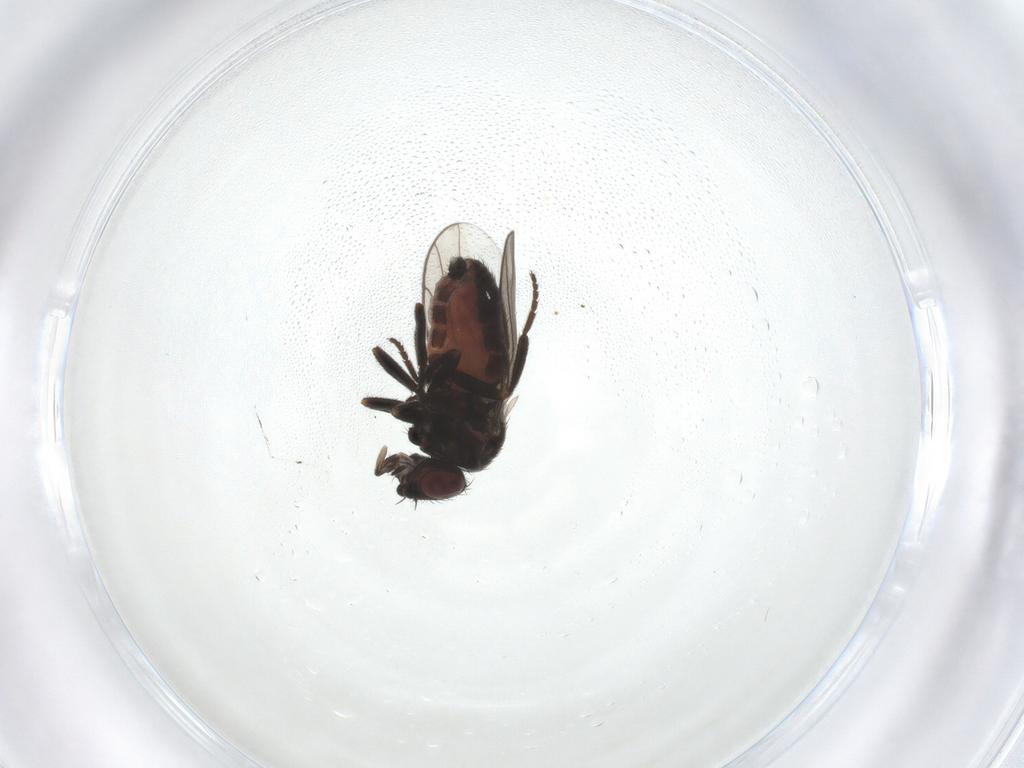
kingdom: Animalia
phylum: Arthropoda
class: Insecta
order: Diptera
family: Chloropidae
